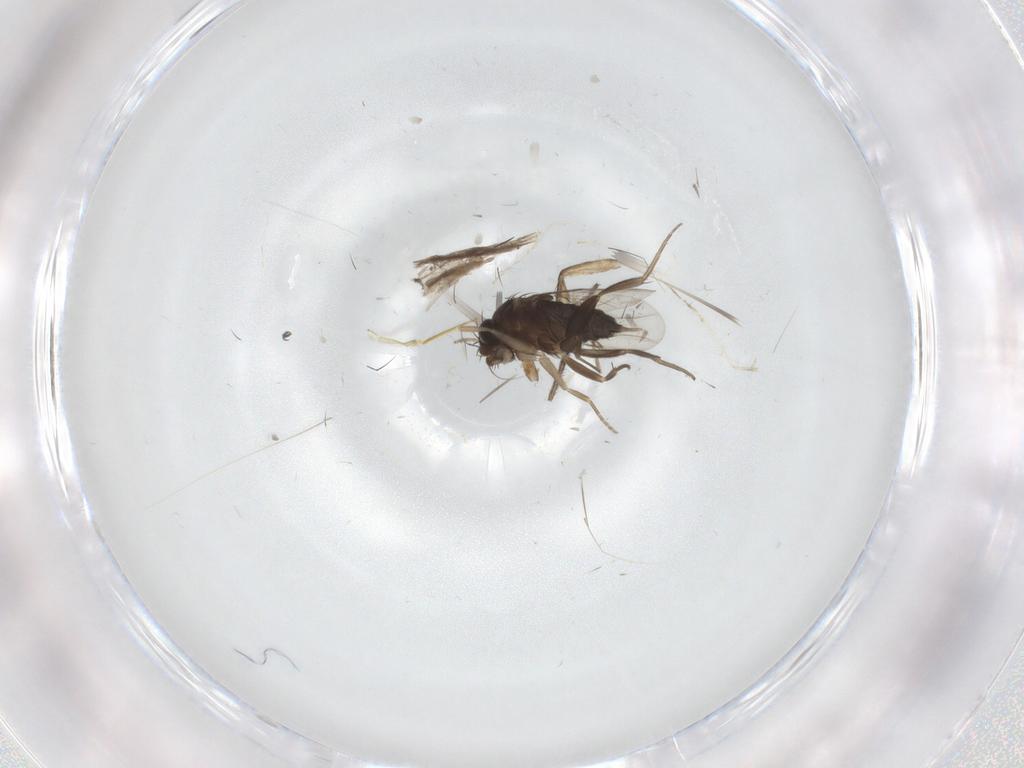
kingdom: Animalia
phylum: Arthropoda
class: Insecta
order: Diptera
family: Phoridae
